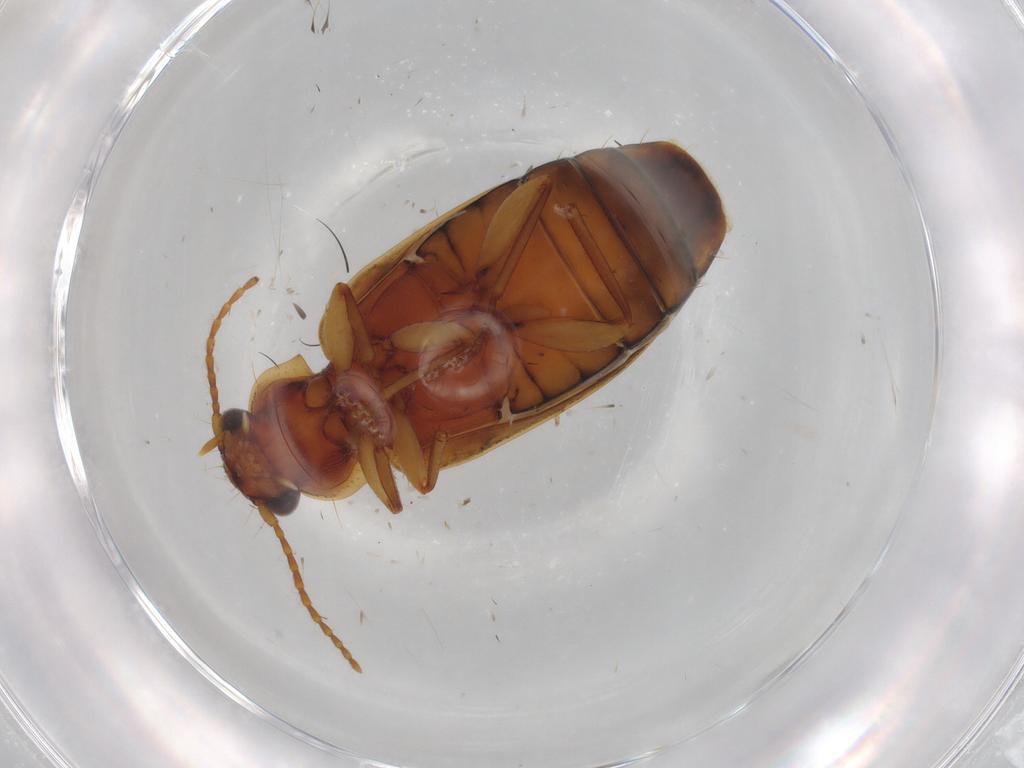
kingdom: Animalia
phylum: Arthropoda
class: Insecta
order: Coleoptera
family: Carabidae
